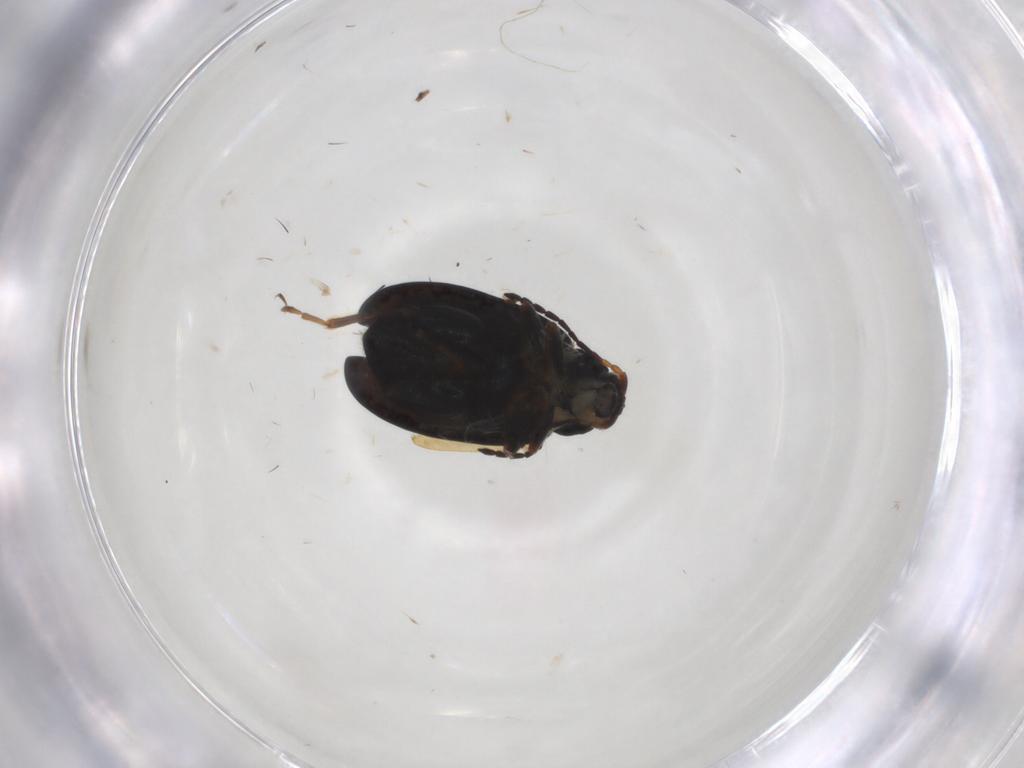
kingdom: Animalia
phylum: Arthropoda
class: Insecta
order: Coleoptera
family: Chrysomelidae
